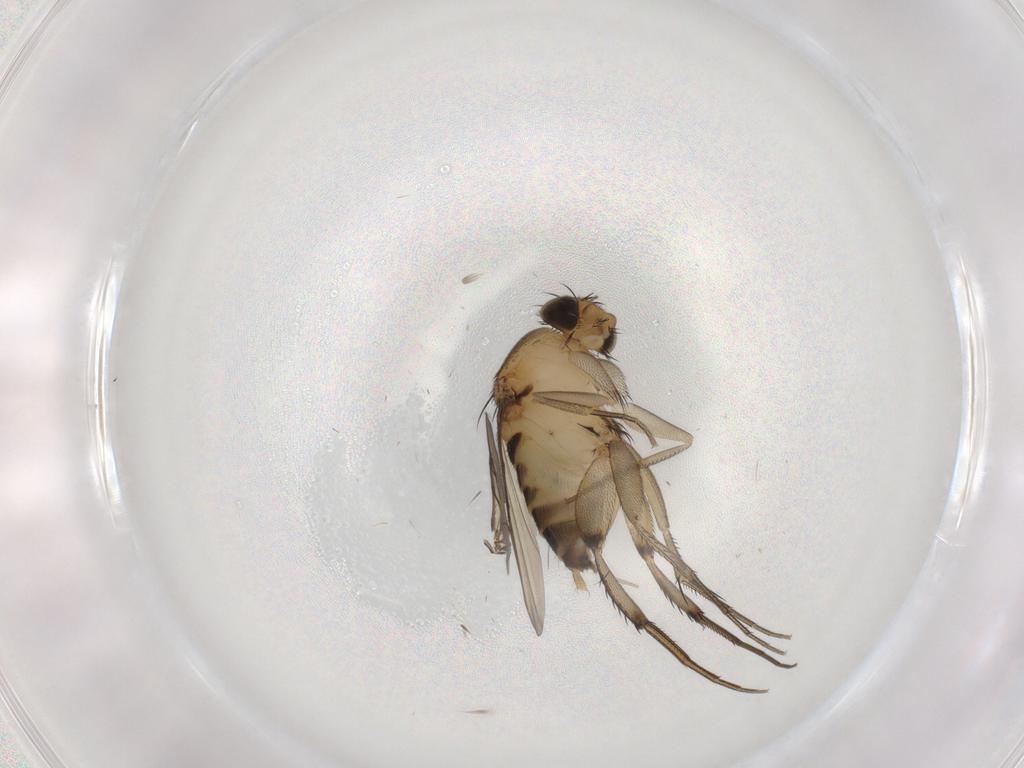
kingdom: Animalia
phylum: Arthropoda
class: Insecta
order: Diptera
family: Phoridae
